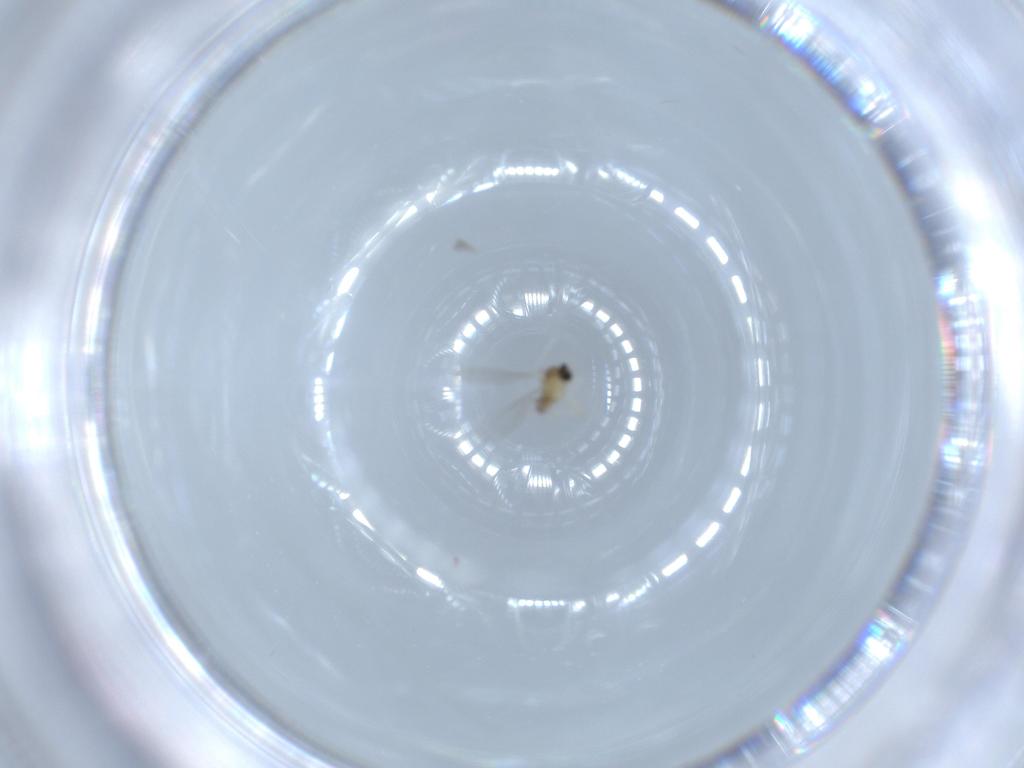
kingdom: Animalia
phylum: Arthropoda
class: Insecta
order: Diptera
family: Cecidomyiidae
